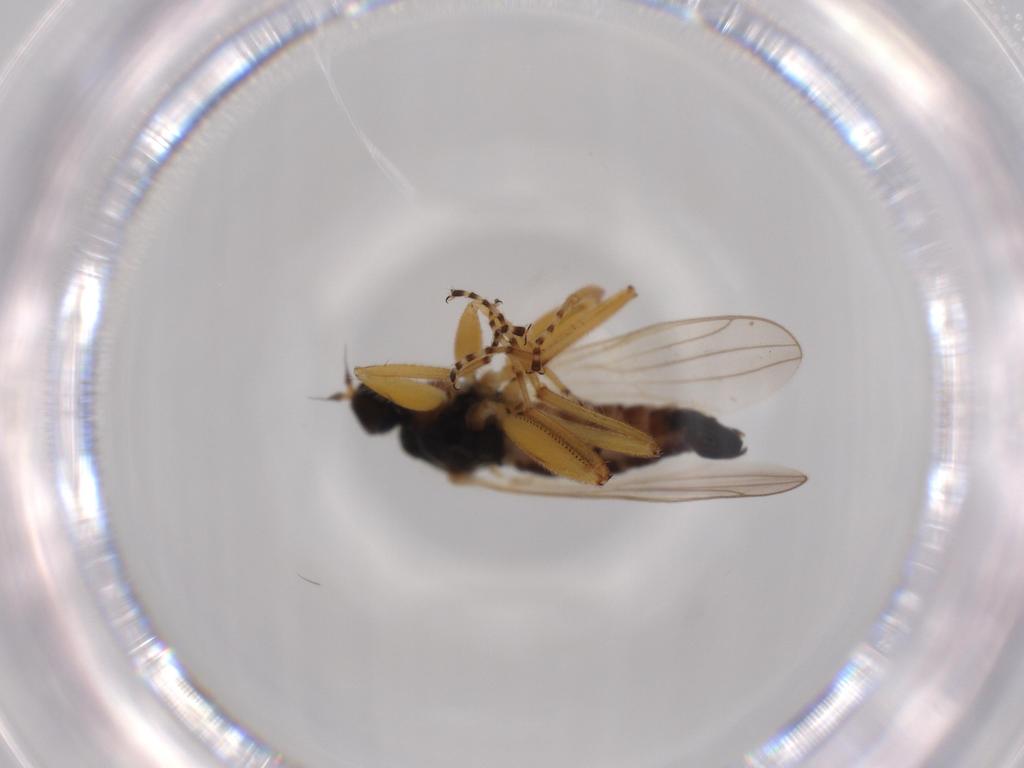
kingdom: Animalia
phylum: Arthropoda
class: Insecta
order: Diptera
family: Hybotidae
